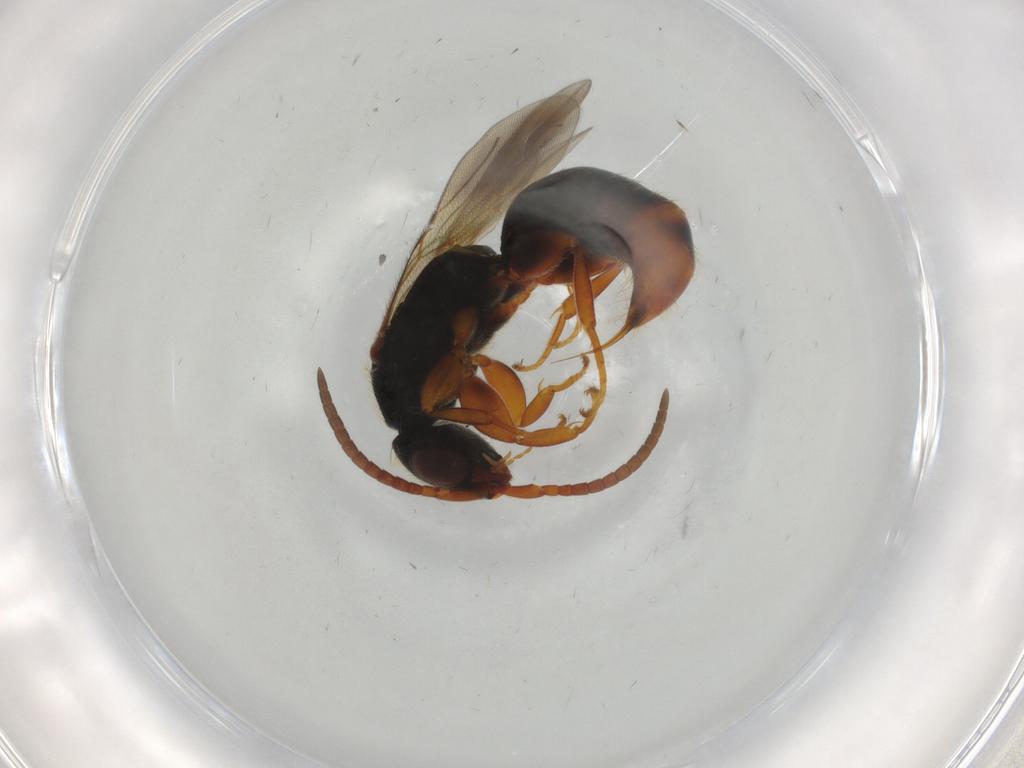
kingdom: Animalia
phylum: Arthropoda
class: Insecta
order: Hymenoptera
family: Bethylidae
